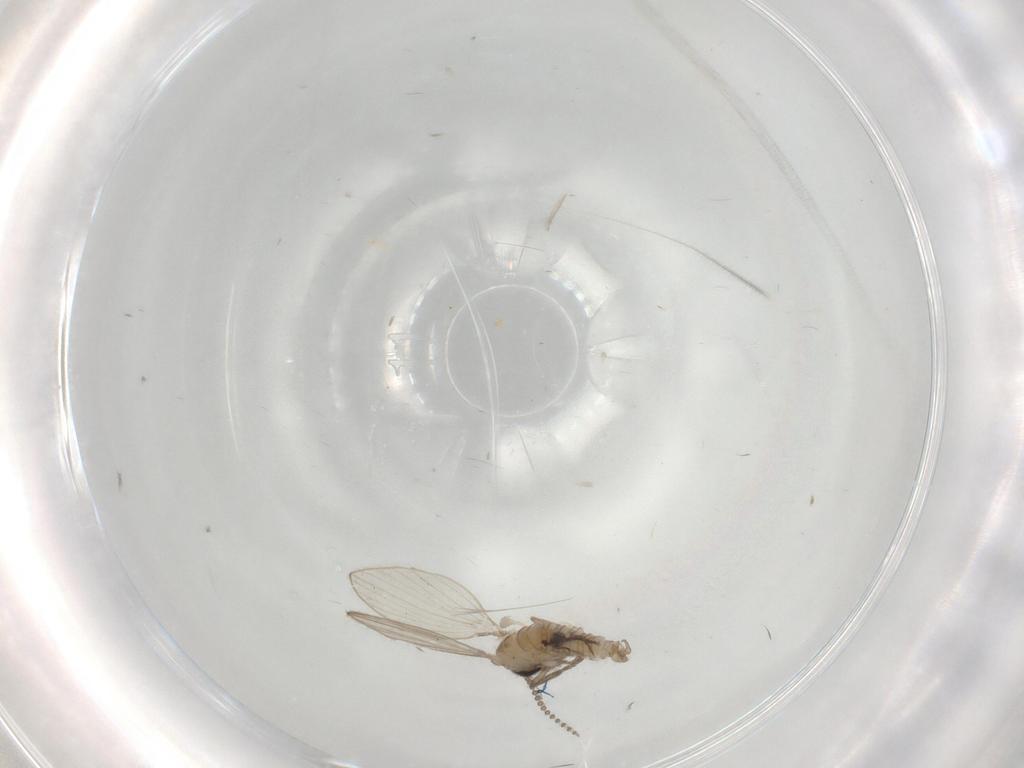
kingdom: Animalia
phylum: Arthropoda
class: Insecta
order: Diptera
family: Psychodidae
